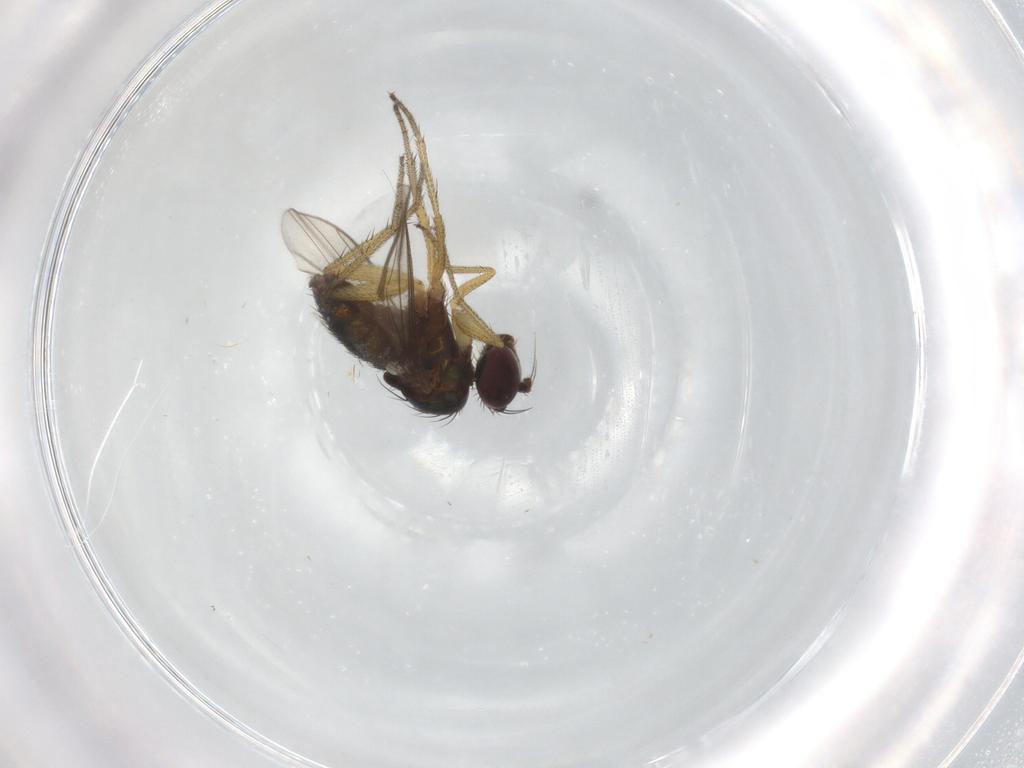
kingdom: Animalia
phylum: Arthropoda
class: Insecta
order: Diptera
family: Dolichopodidae
